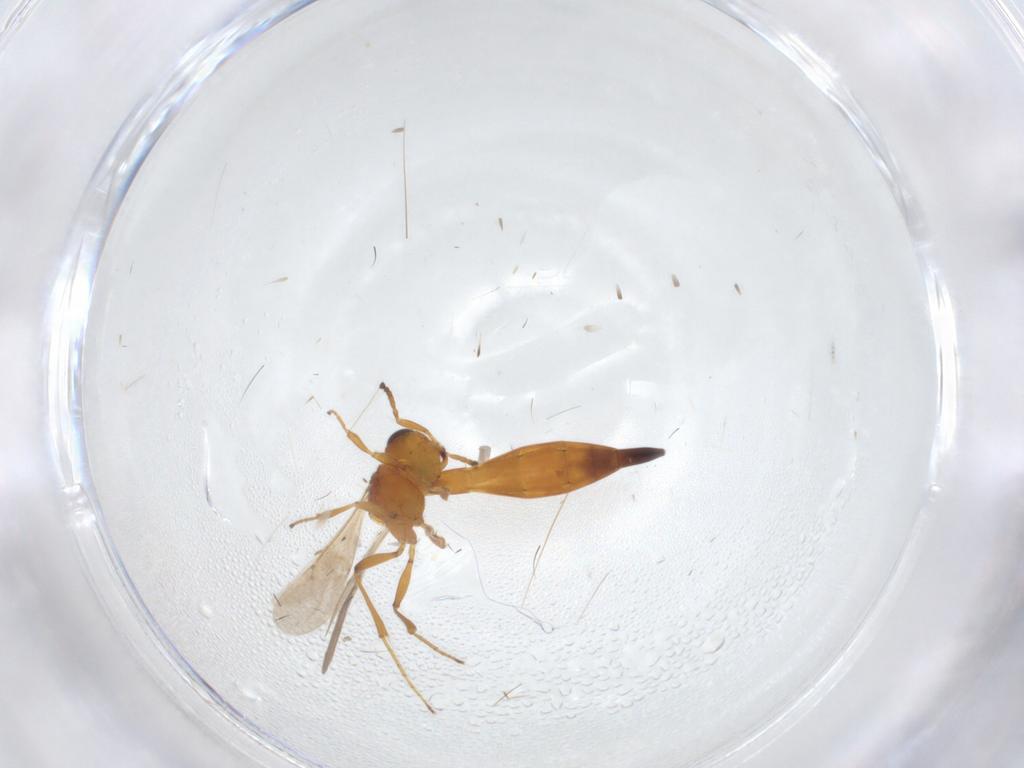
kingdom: Animalia
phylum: Arthropoda
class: Insecta
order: Hymenoptera
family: Scelionidae
